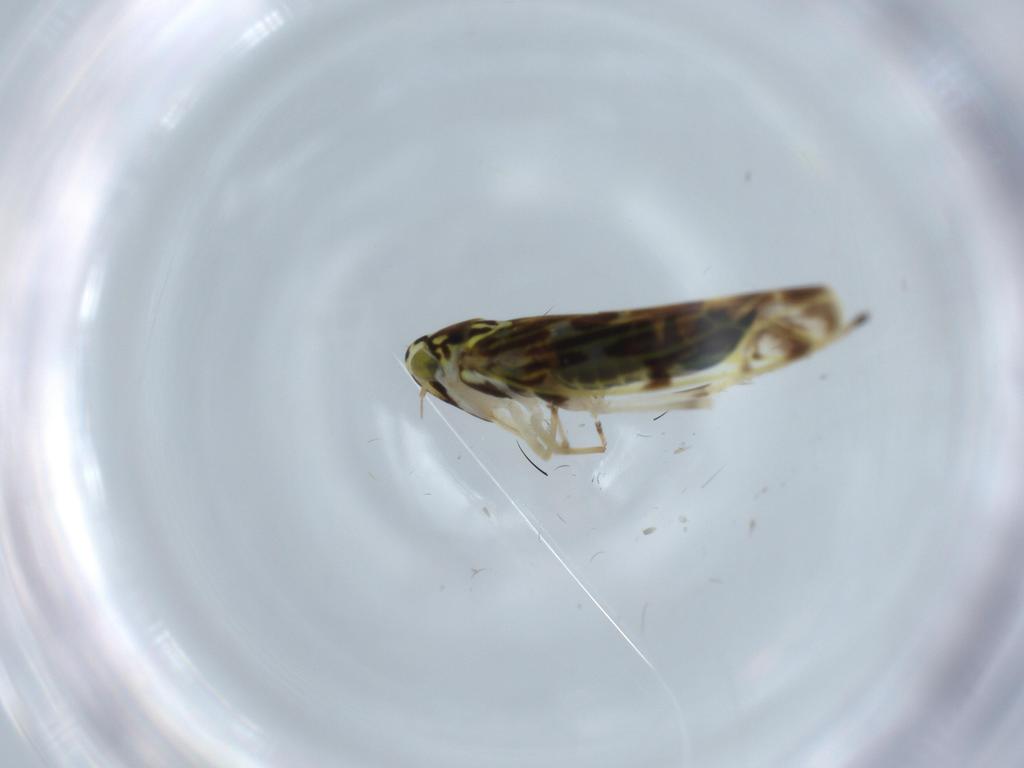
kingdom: Animalia
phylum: Arthropoda
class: Insecta
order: Hemiptera
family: Cicadellidae
